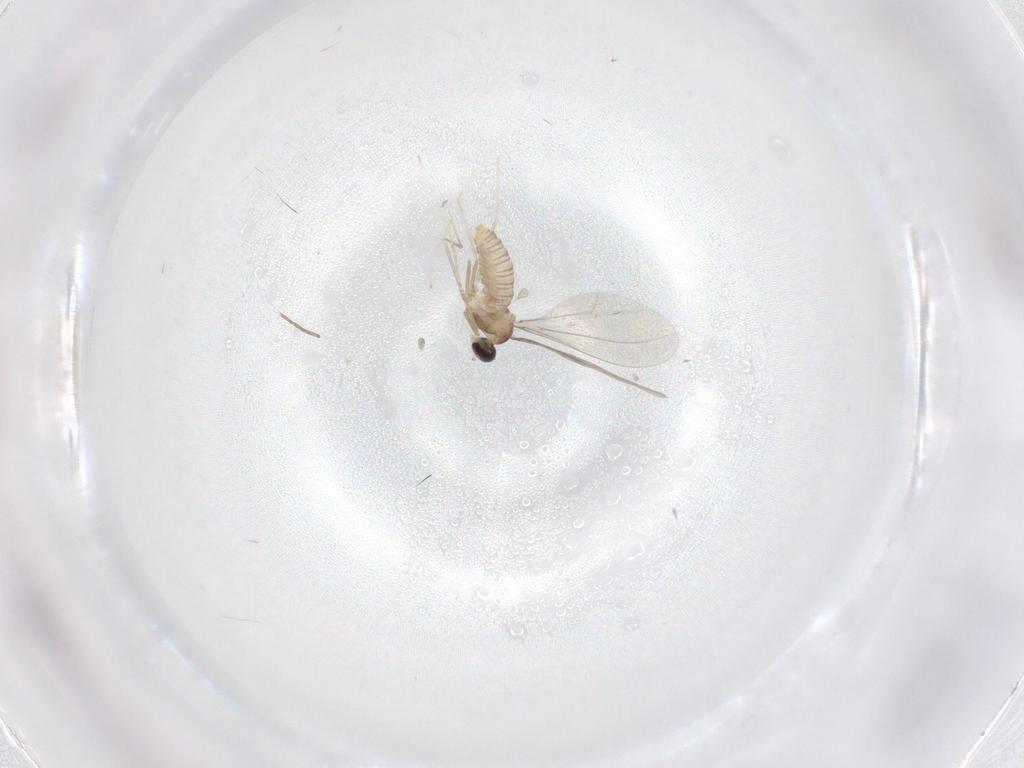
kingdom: Animalia
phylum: Arthropoda
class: Insecta
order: Diptera
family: Cecidomyiidae
